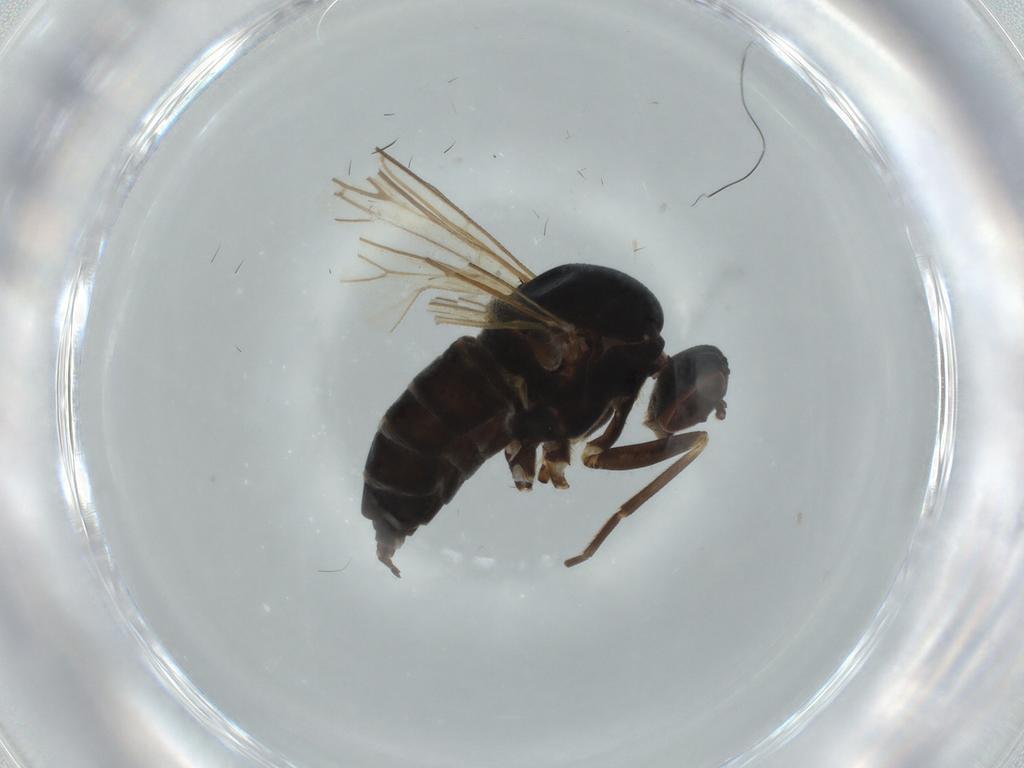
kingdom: Animalia
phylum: Arthropoda
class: Insecta
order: Diptera
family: Phoridae
